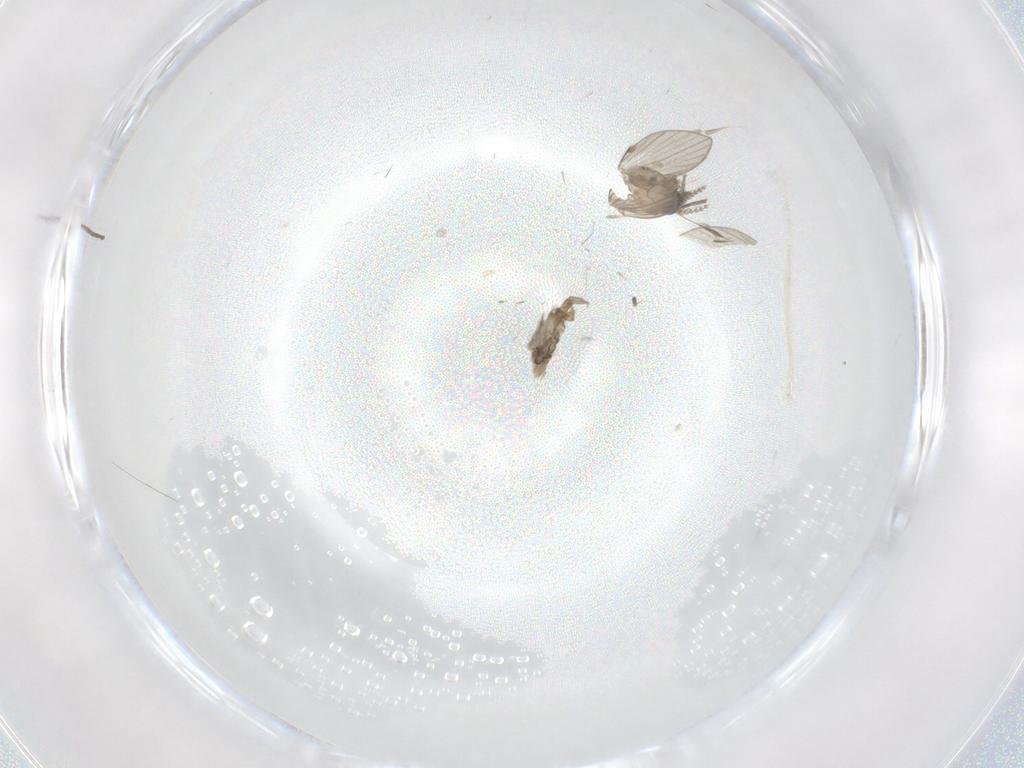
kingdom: Animalia
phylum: Arthropoda
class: Insecta
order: Diptera
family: Psychodidae
